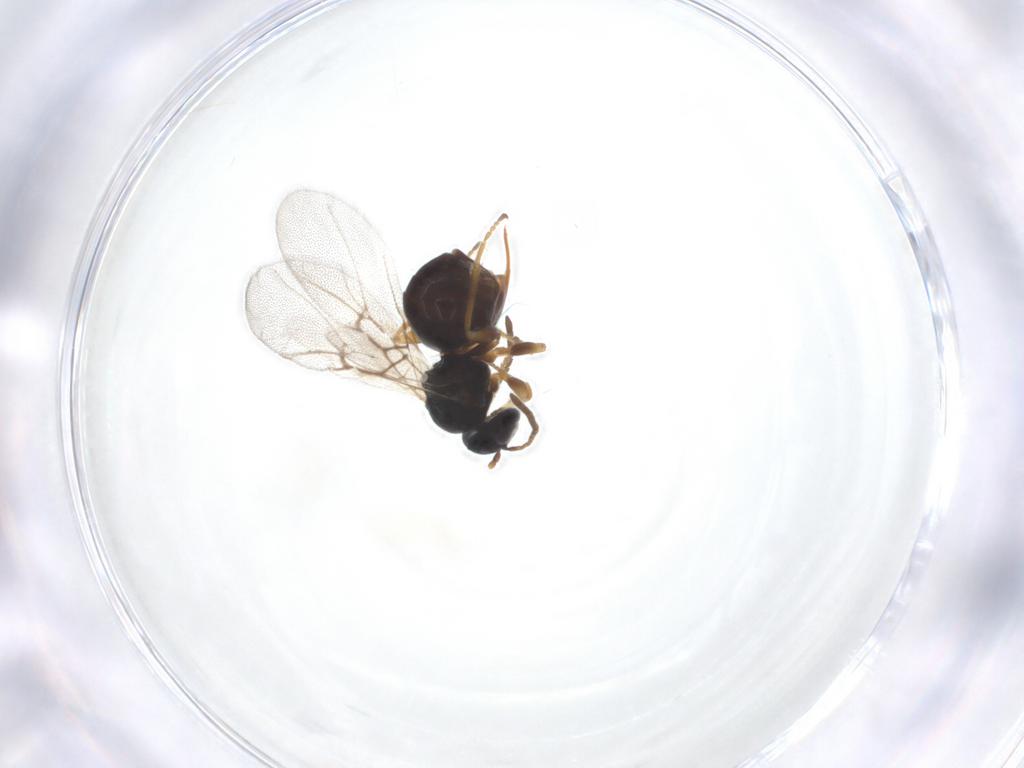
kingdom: Animalia
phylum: Arthropoda
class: Insecta
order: Hymenoptera
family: Cynipidae
